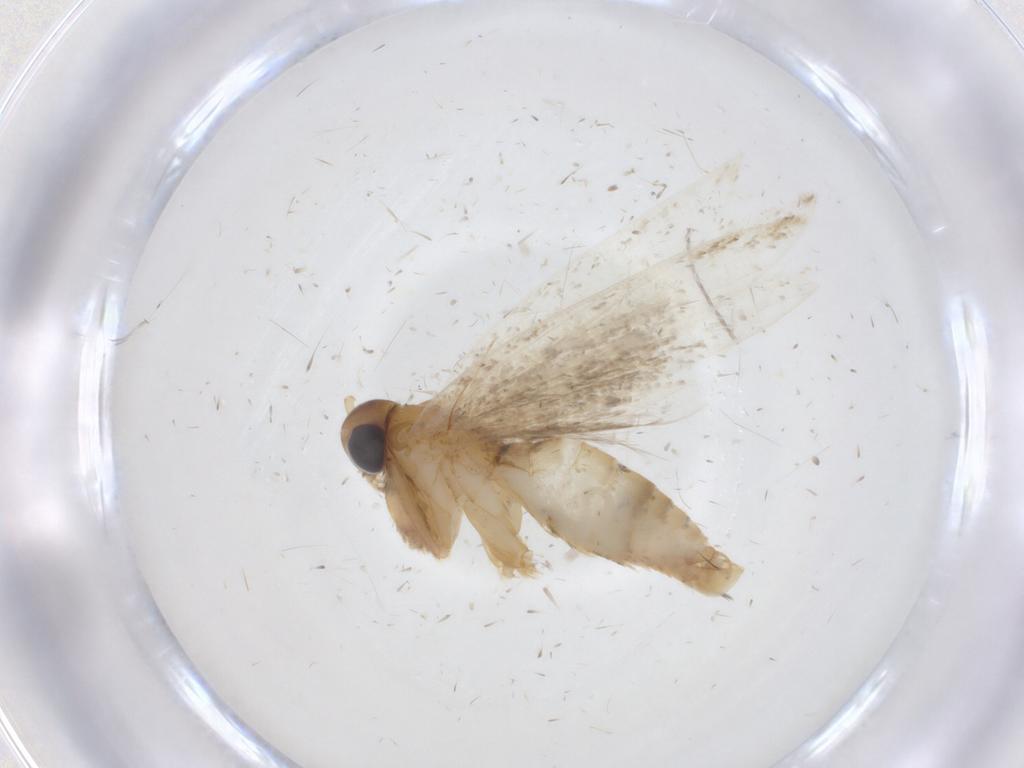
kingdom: Animalia
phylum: Arthropoda
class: Insecta
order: Lepidoptera
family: Oecophoridae
